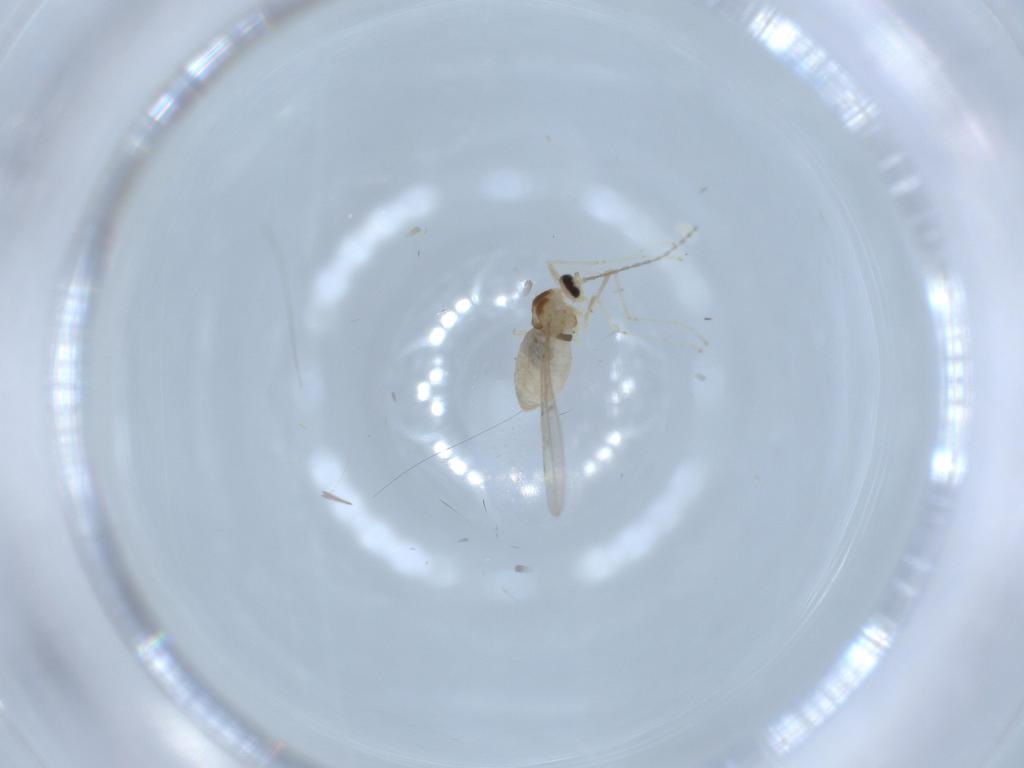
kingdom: Animalia
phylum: Arthropoda
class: Insecta
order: Diptera
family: Cecidomyiidae
